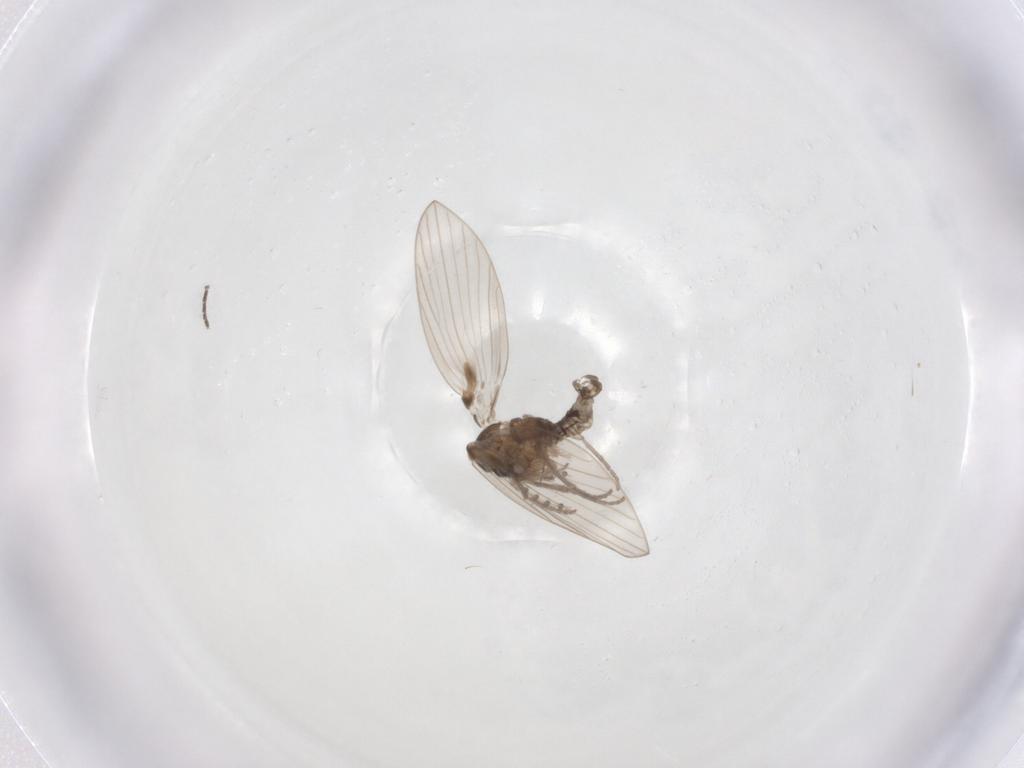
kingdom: Animalia
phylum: Arthropoda
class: Insecta
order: Diptera
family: Psychodidae
